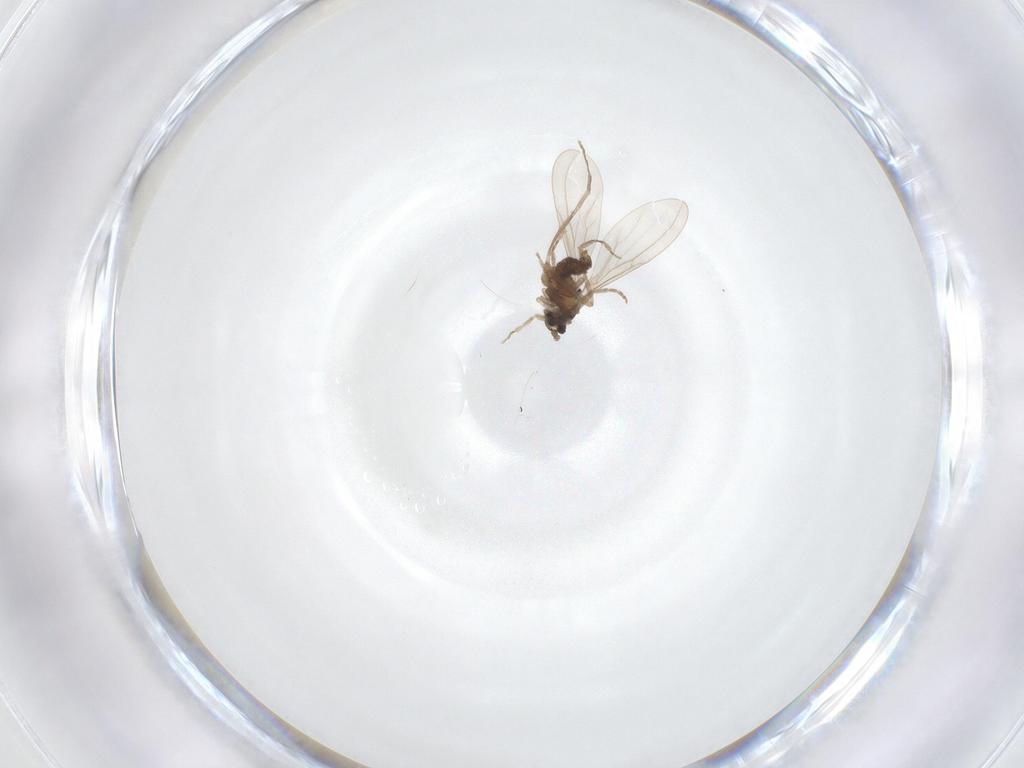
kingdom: Animalia
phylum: Arthropoda
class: Insecta
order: Diptera
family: Cecidomyiidae
